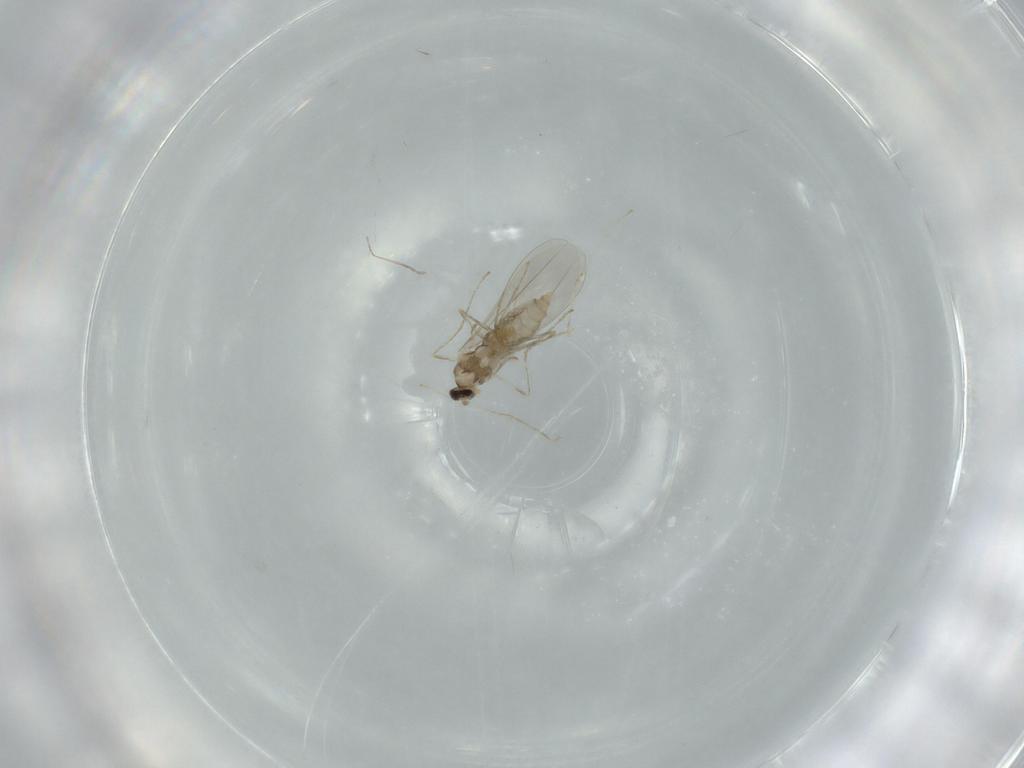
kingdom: Animalia
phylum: Arthropoda
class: Insecta
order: Diptera
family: Cecidomyiidae
